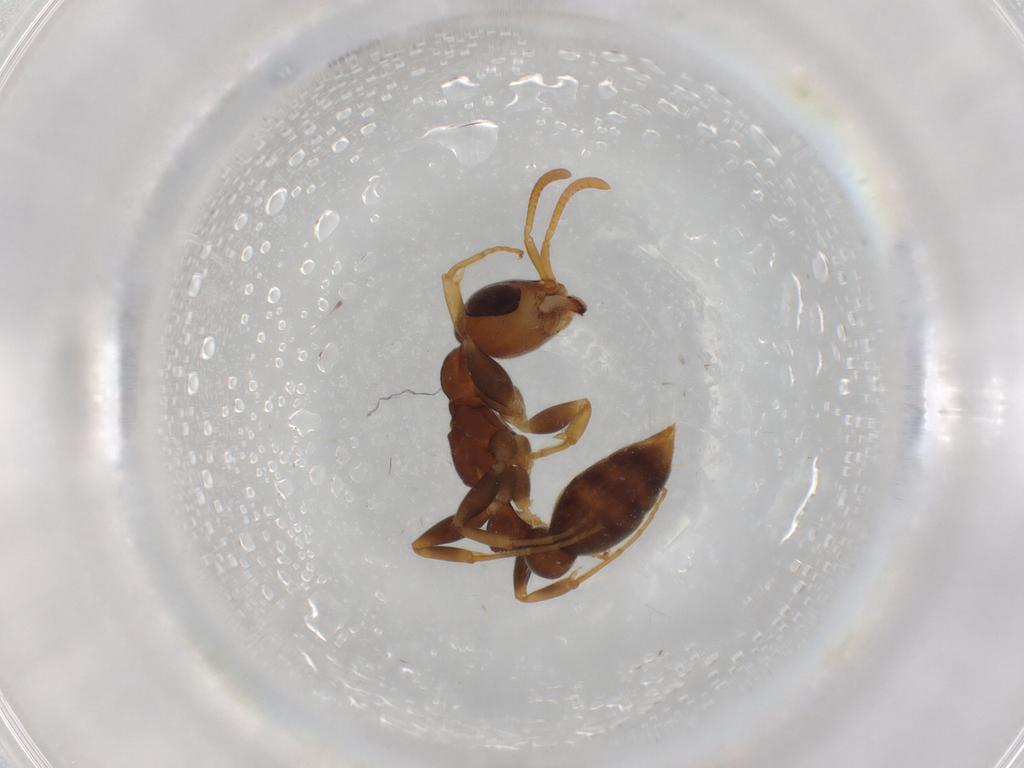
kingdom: Animalia
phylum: Arthropoda
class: Insecta
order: Hymenoptera
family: Formicidae
